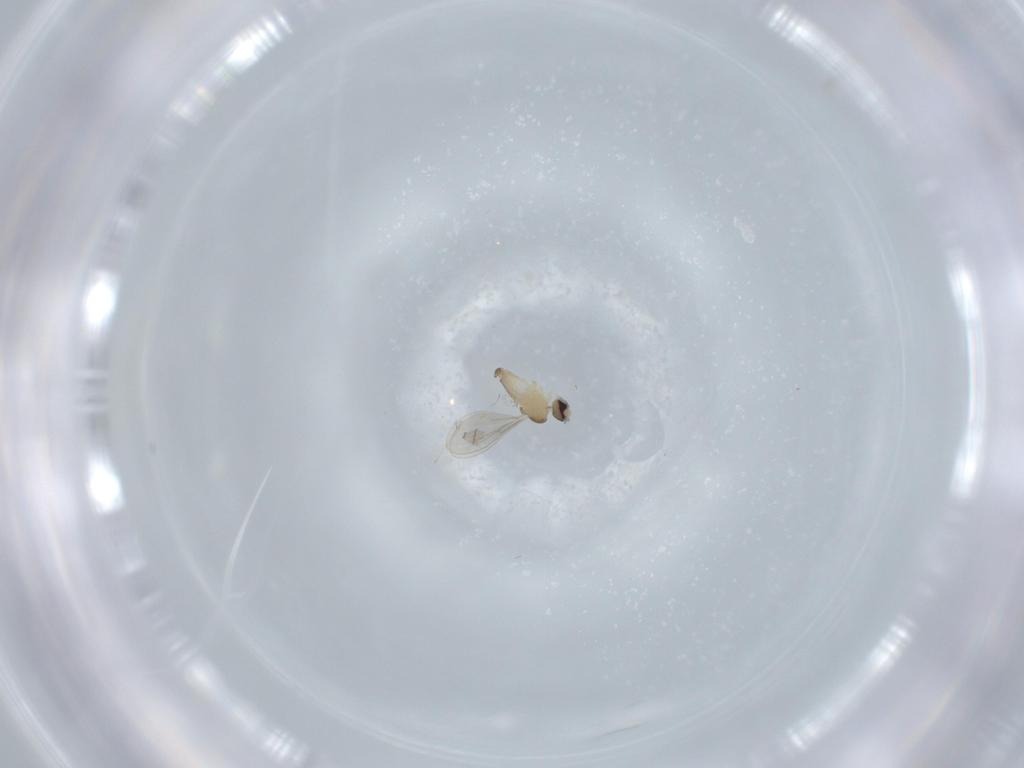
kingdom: Animalia
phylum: Arthropoda
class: Insecta
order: Diptera
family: Cecidomyiidae
